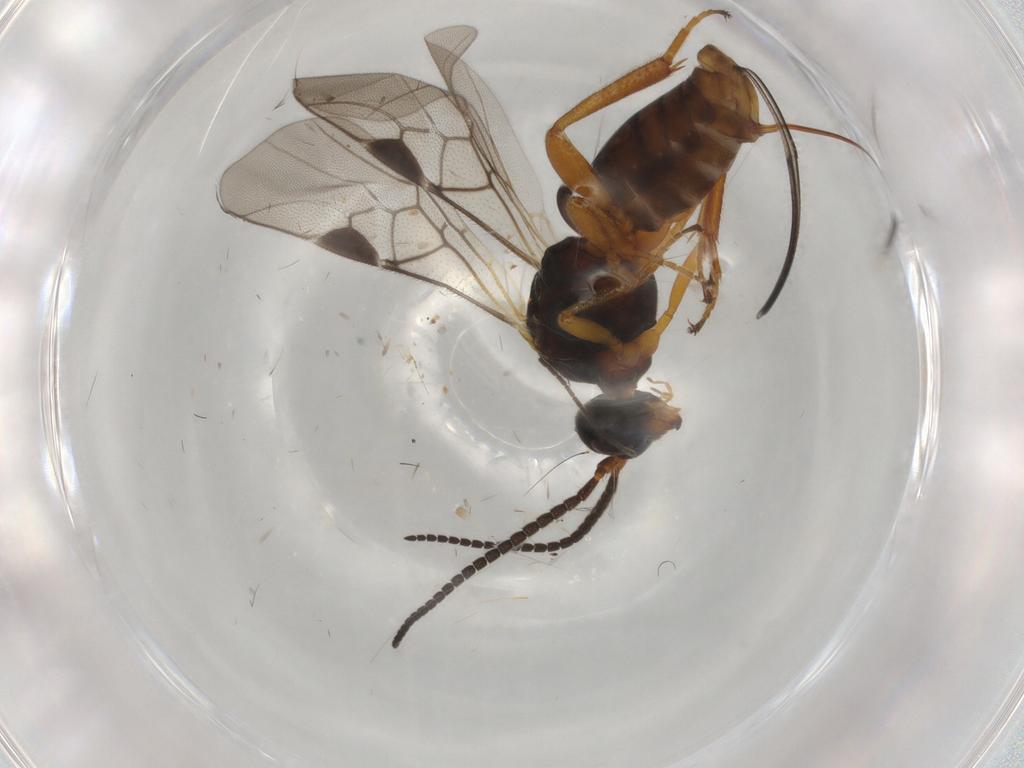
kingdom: Animalia
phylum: Arthropoda
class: Insecta
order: Hymenoptera
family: Braconidae
